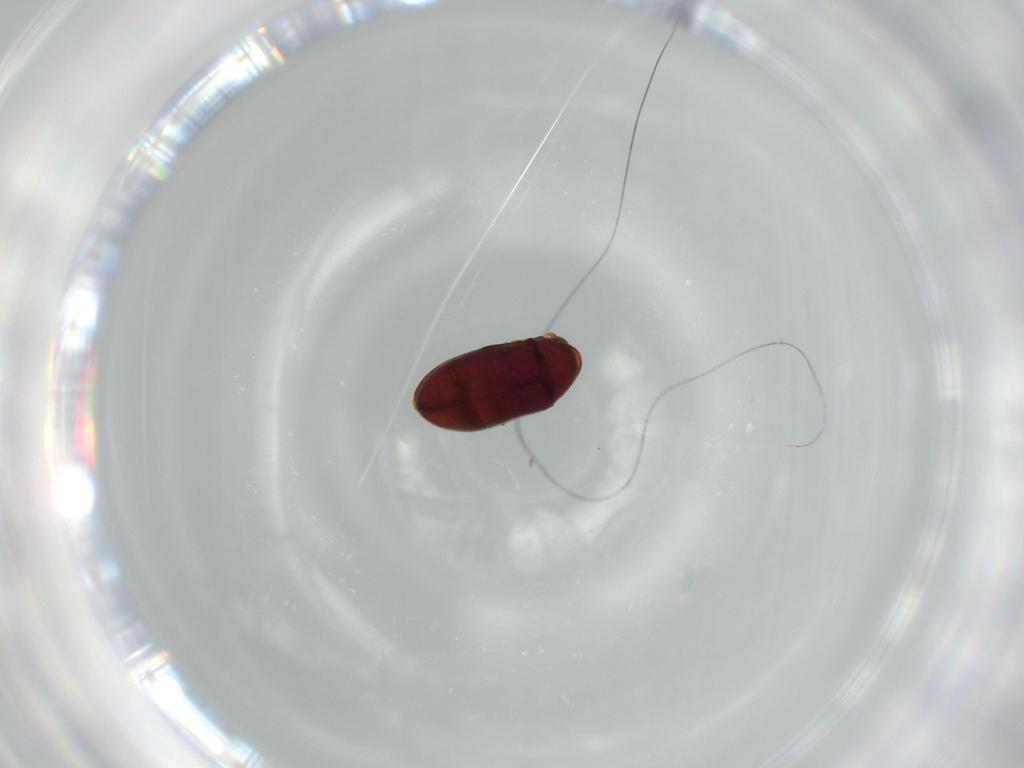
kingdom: Animalia
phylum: Arthropoda
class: Insecta
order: Coleoptera
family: Ptinidae
